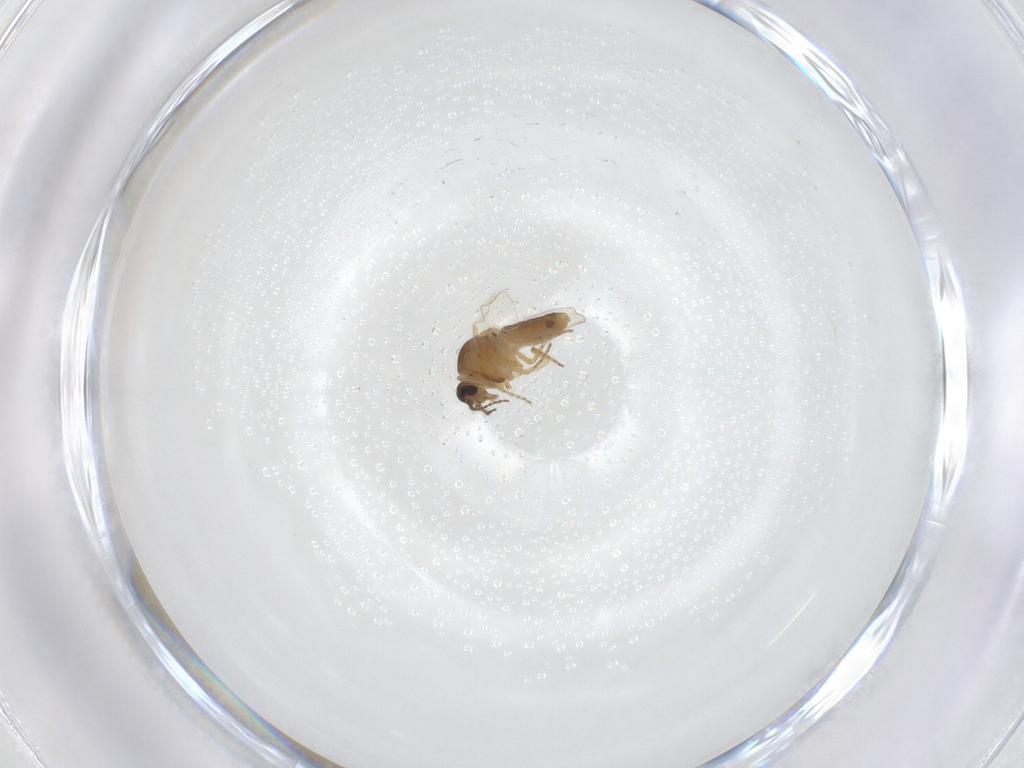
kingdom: Animalia
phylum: Arthropoda
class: Insecta
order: Diptera
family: Ceratopogonidae
